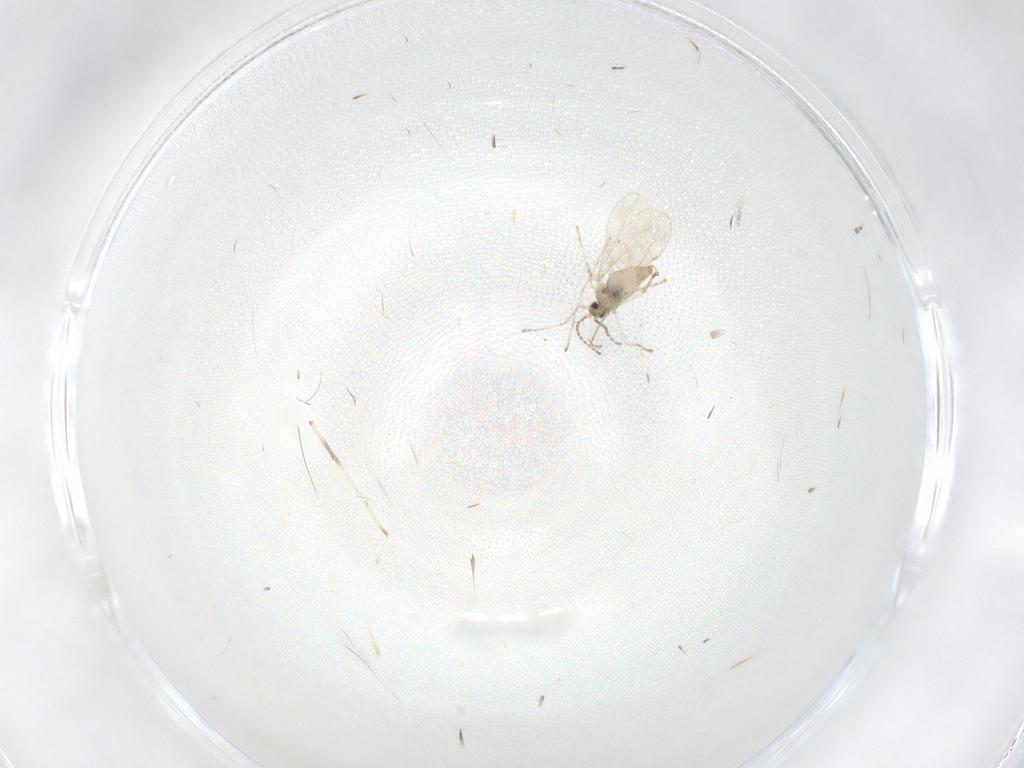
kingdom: Animalia
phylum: Arthropoda
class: Insecta
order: Diptera
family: Cecidomyiidae
